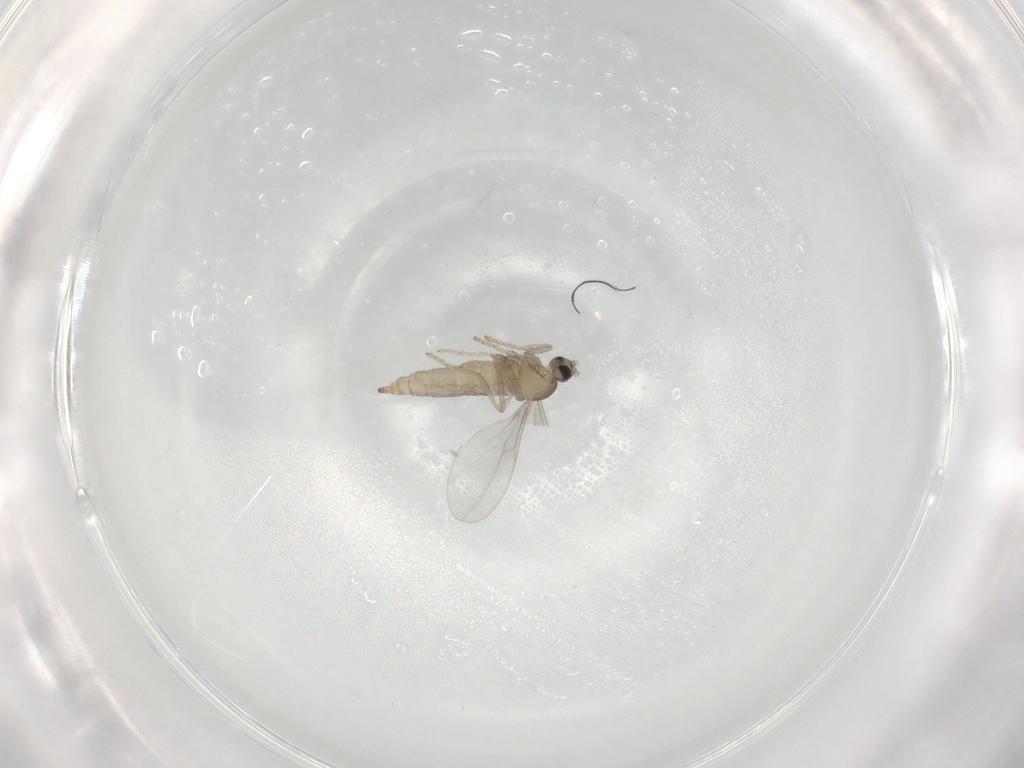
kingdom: Animalia
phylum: Arthropoda
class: Insecta
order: Diptera
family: Cecidomyiidae
